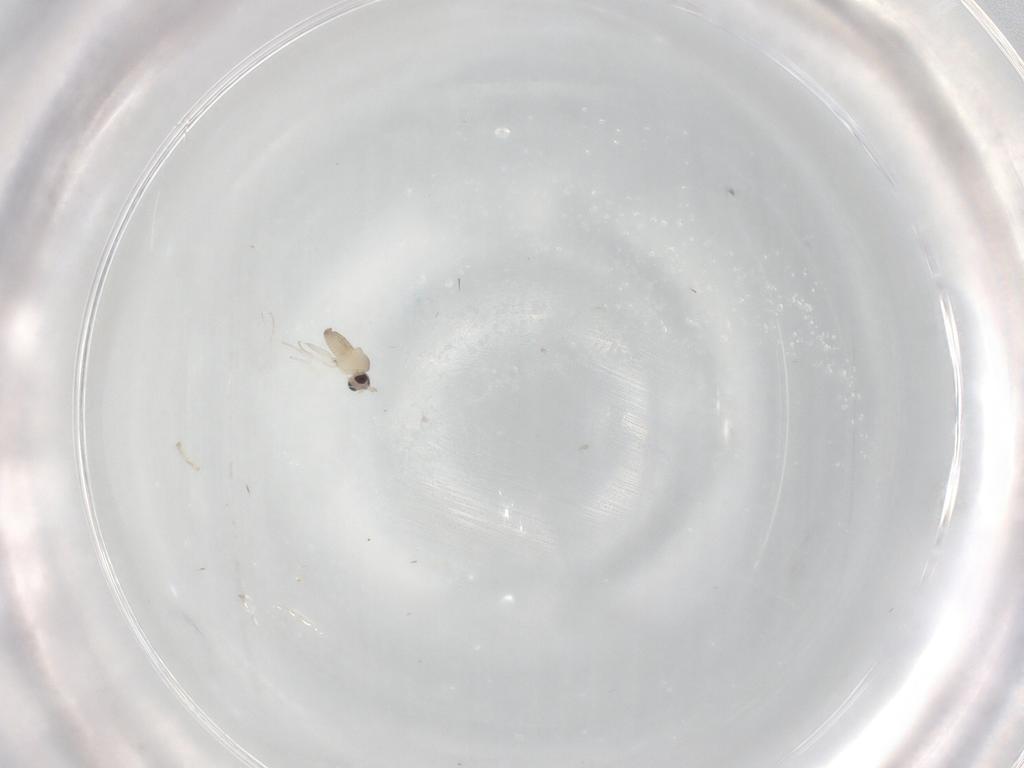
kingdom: Animalia
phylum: Arthropoda
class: Insecta
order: Diptera
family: Cecidomyiidae
